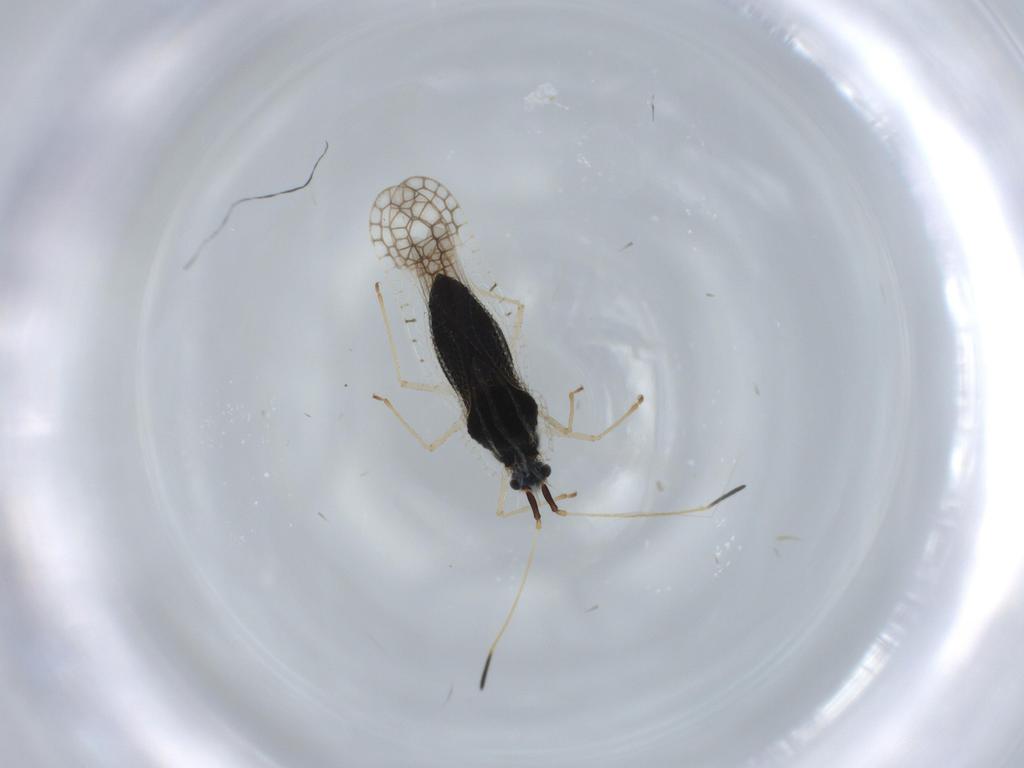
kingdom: Animalia
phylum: Arthropoda
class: Insecta
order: Hemiptera
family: Tingidae
